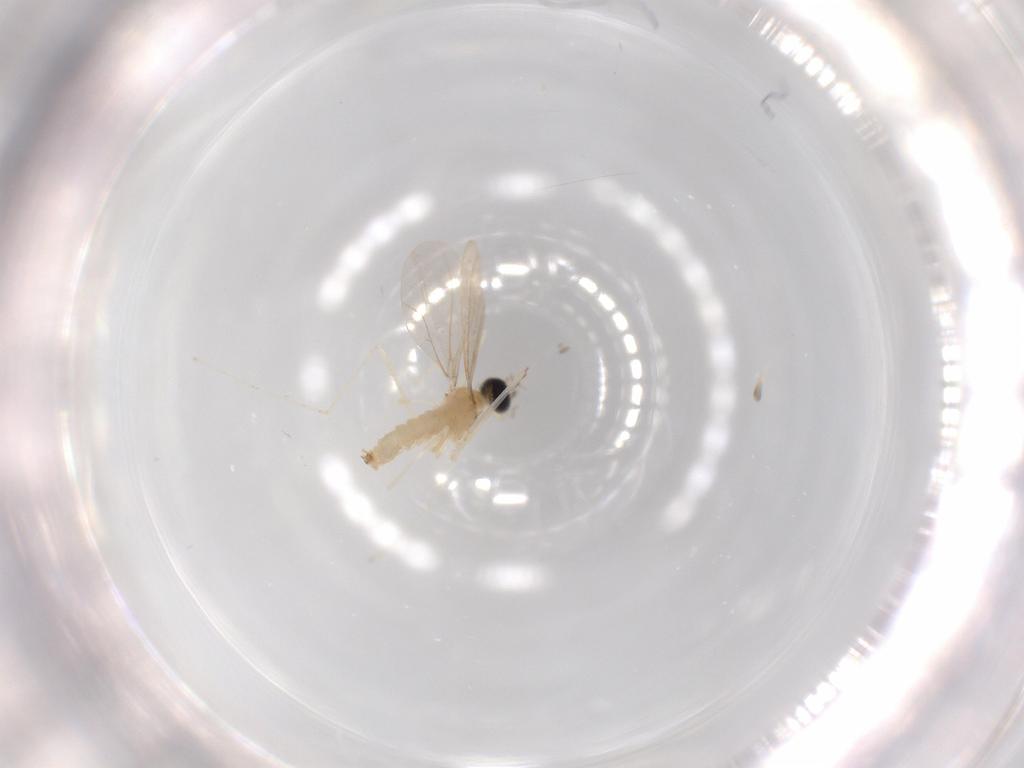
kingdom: Animalia
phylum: Arthropoda
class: Insecta
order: Diptera
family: Cecidomyiidae
